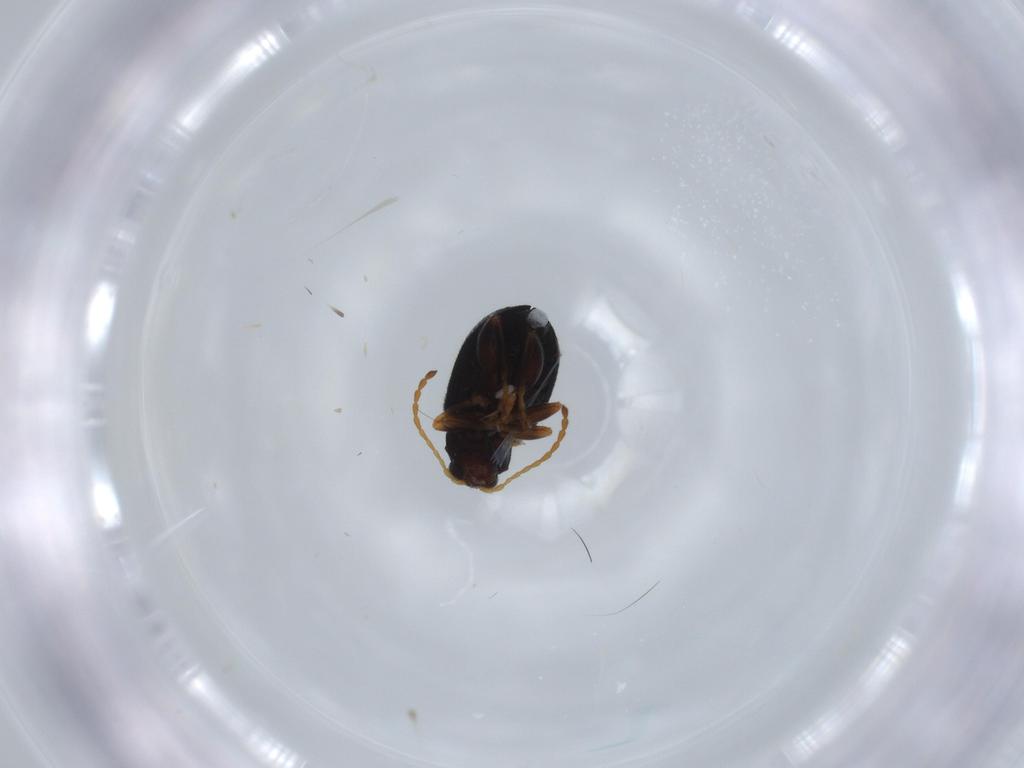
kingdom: Animalia
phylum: Arthropoda
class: Insecta
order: Coleoptera
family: Chrysomelidae
